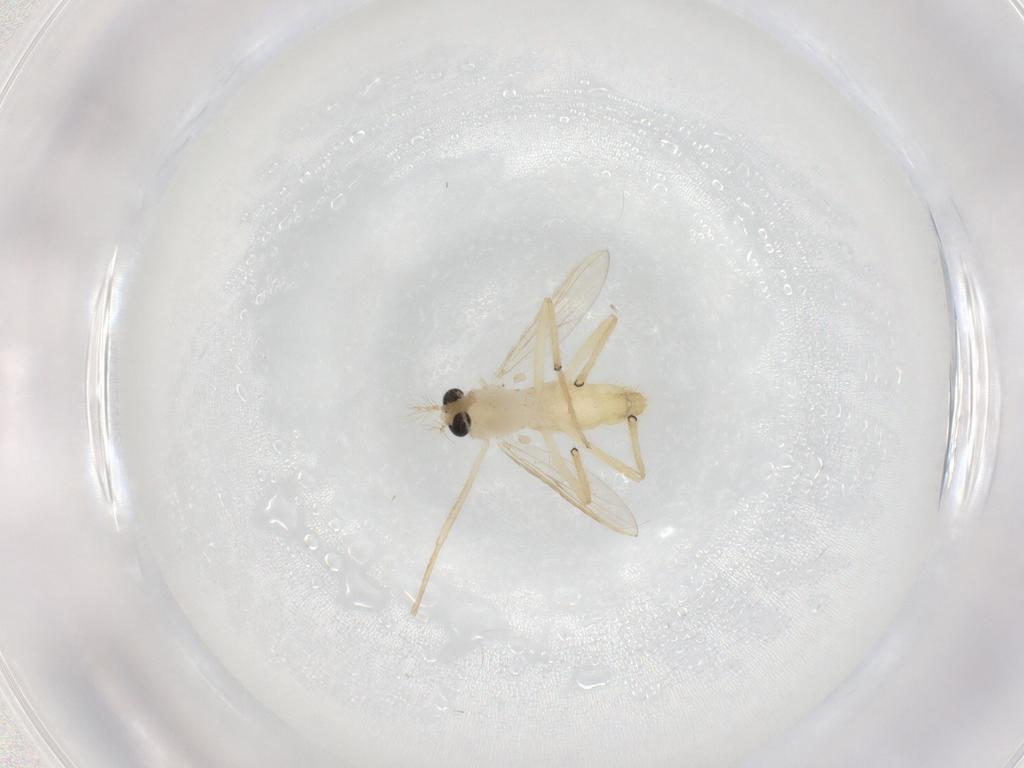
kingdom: Animalia
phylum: Arthropoda
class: Insecta
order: Diptera
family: Chironomidae
